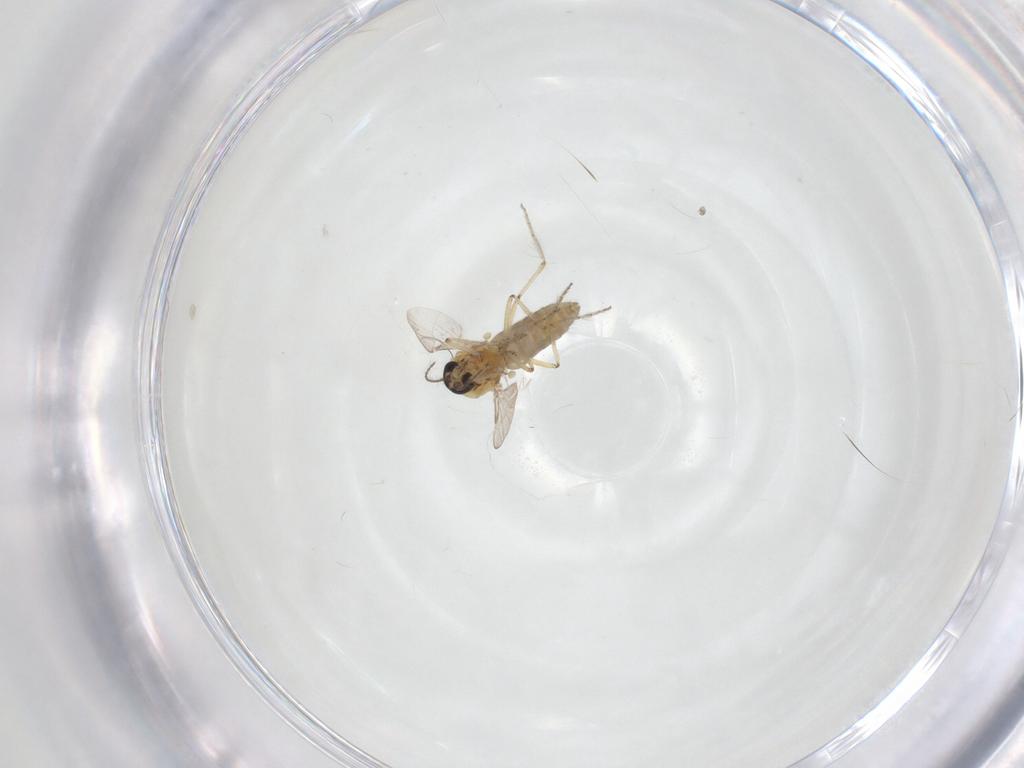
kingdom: Animalia
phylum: Arthropoda
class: Insecta
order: Diptera
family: Ceratopogonidae
